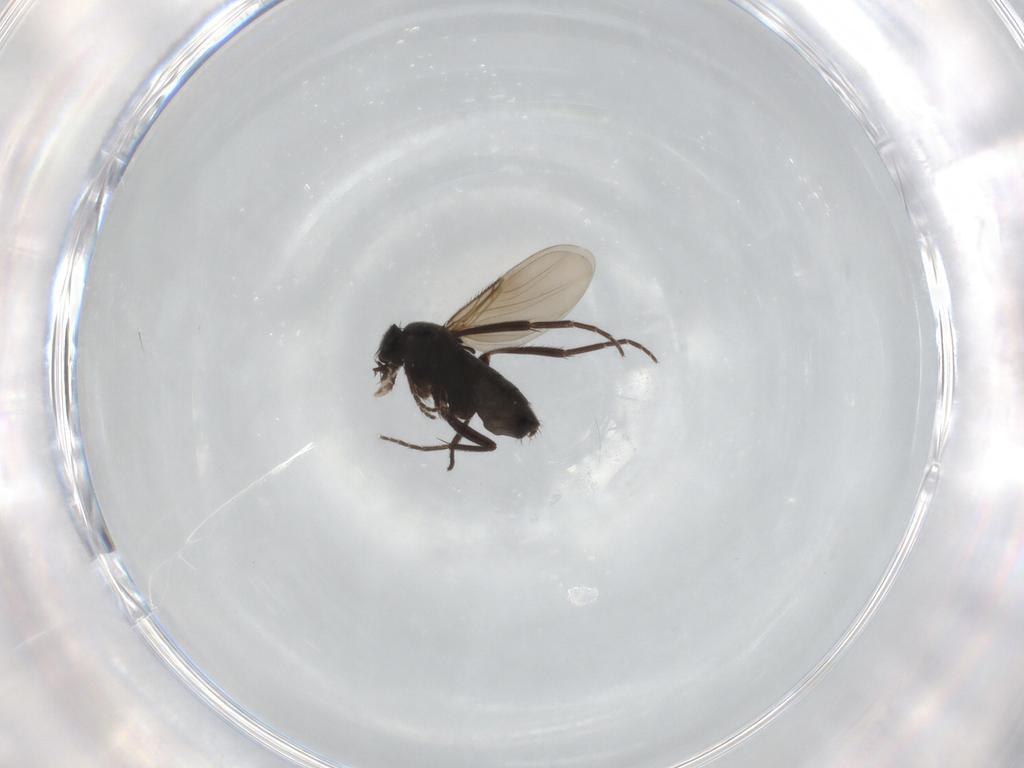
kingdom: Animalia
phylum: Arthropoda
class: Insecta
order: Diptera
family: Phoridae
